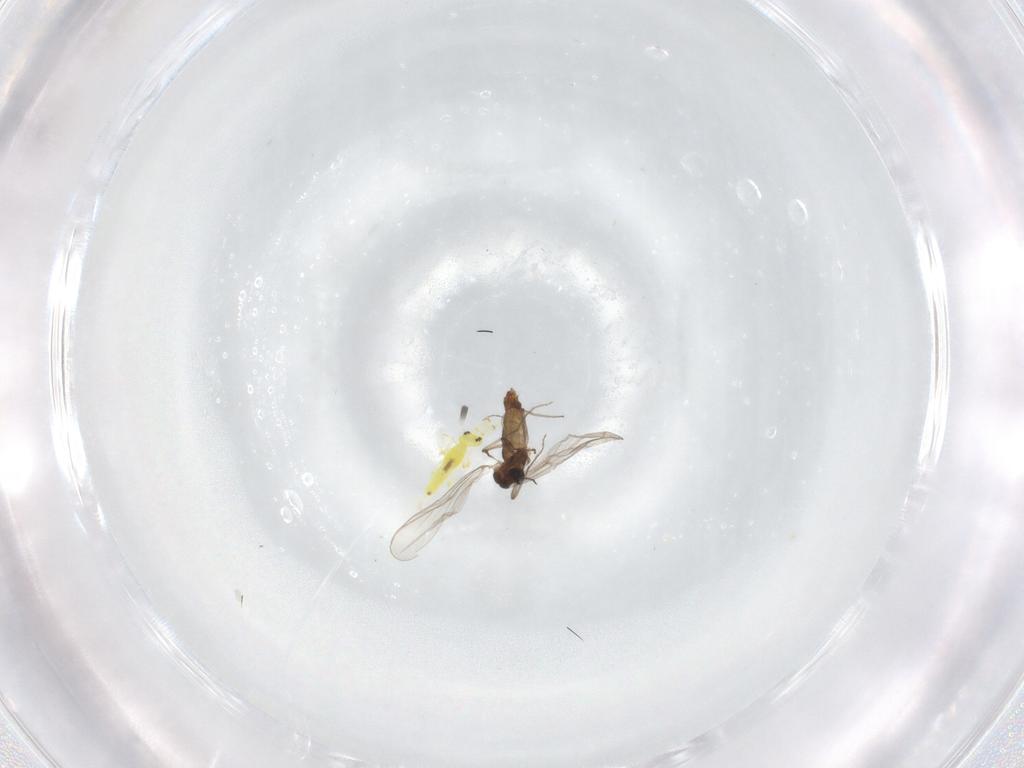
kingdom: Animalia
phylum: Arthropoda
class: Insecta
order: Diptera
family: Chironomidae
